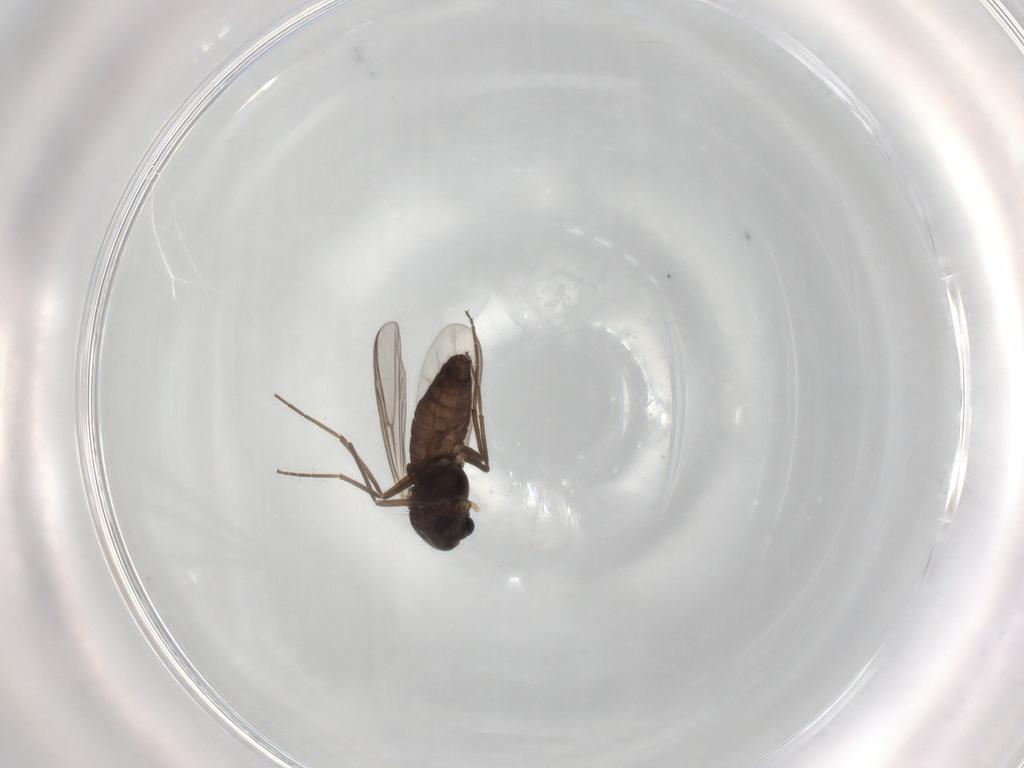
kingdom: Animalia
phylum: Arthropoda
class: Insecta
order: Diptera
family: Chironomidae
